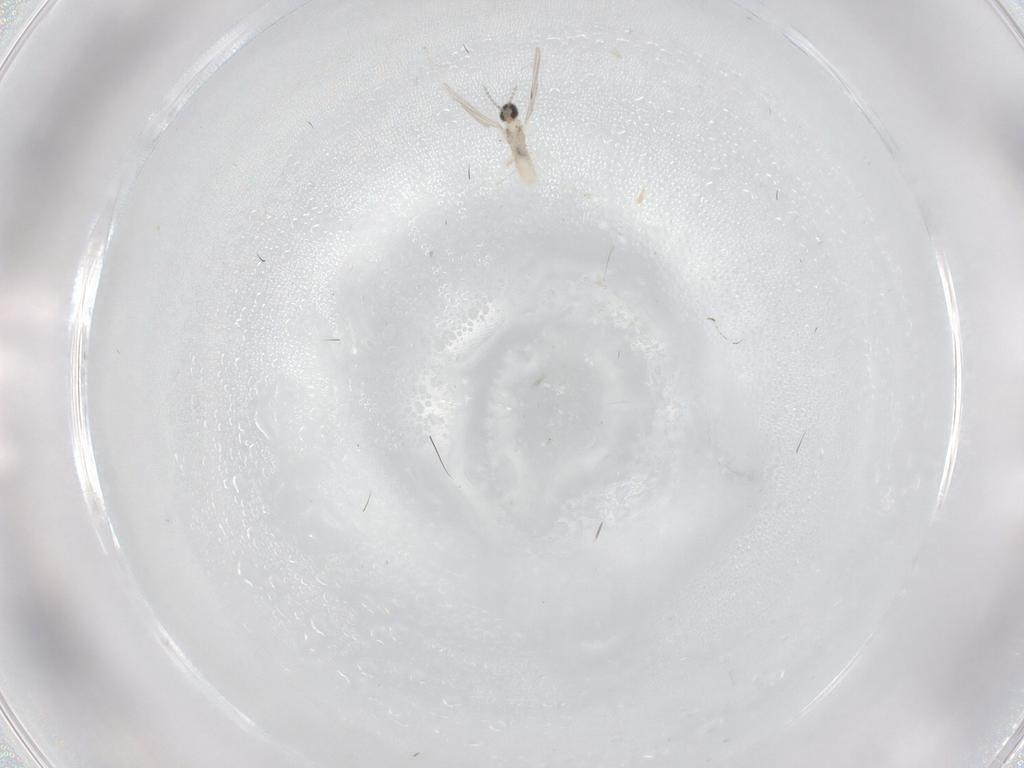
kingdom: Animalia
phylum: Arthropoda
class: Insecta
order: Diptera
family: Cecidomyiidae
